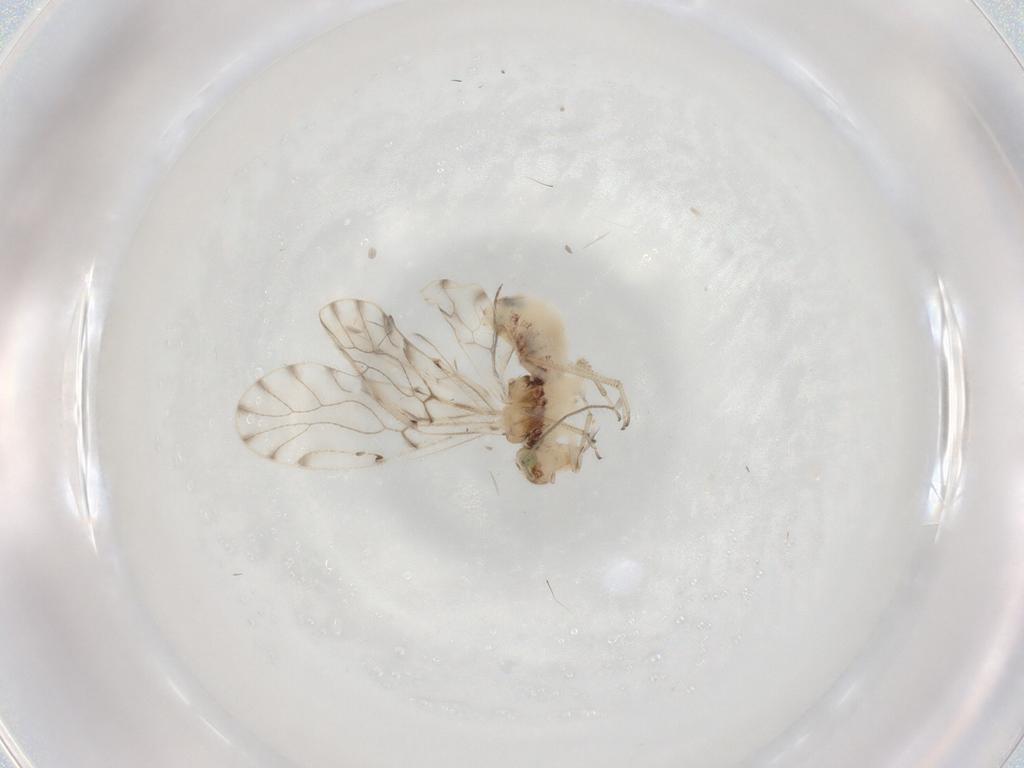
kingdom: Animalia
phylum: Arthropoda
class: Insecta
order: Psocodea
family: Ectopsocidae
